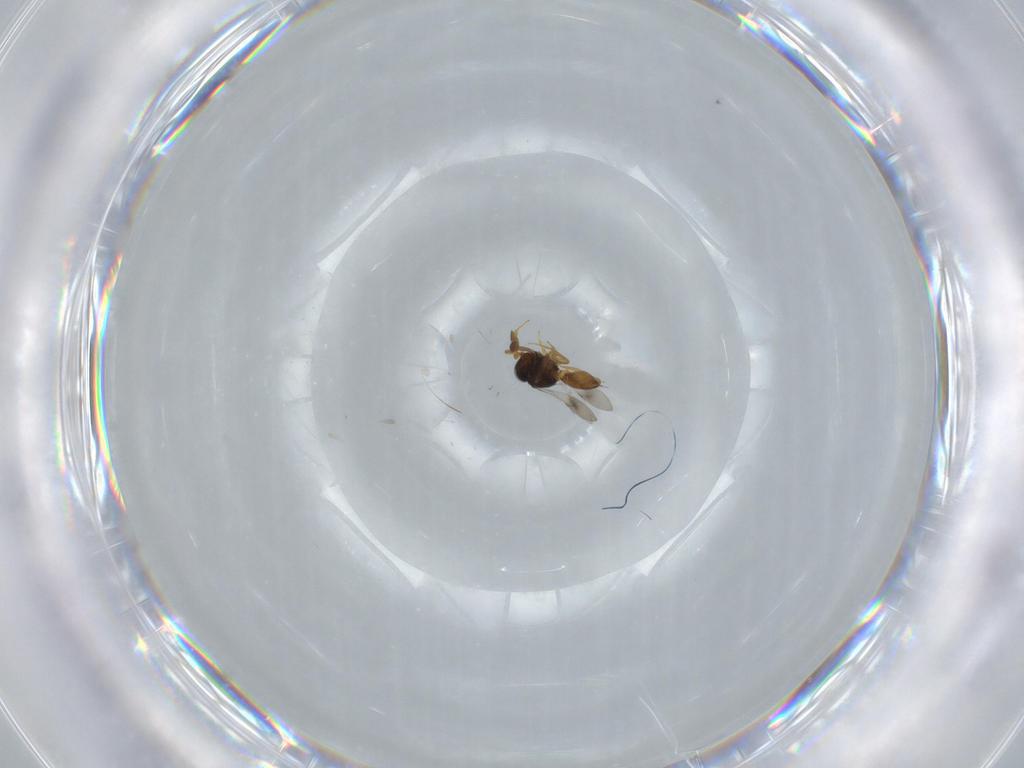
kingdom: Animalia
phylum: Arthropoda
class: Insecta
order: Hymenoptera
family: Scelionidae
